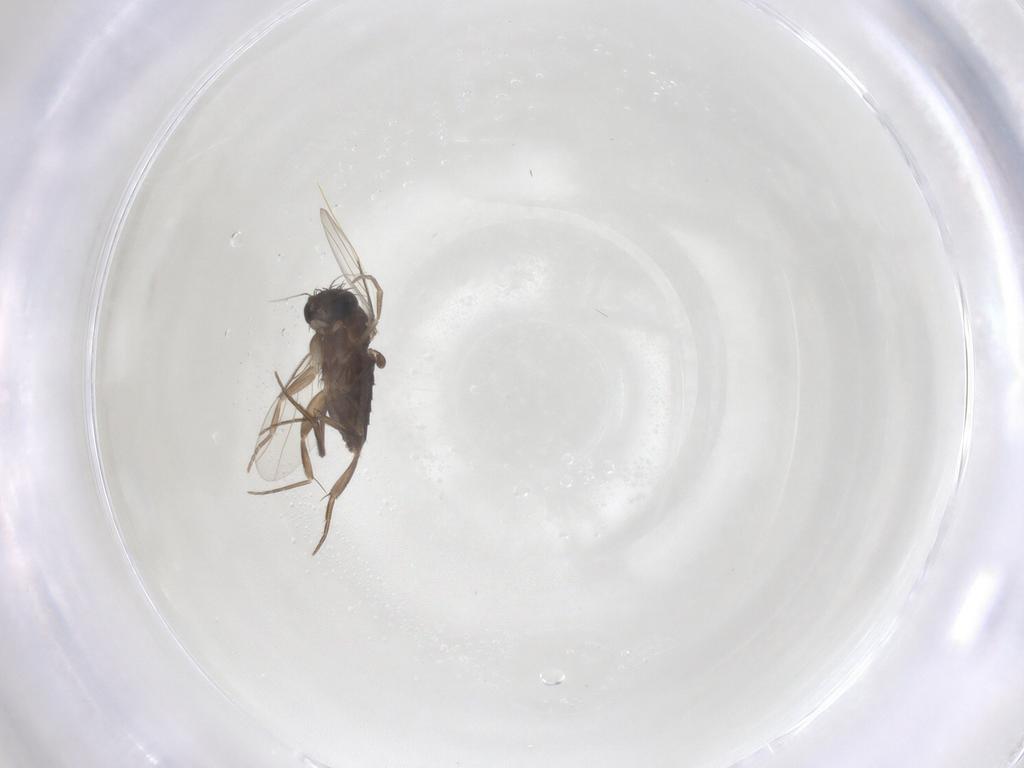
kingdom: Animalia
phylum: Arthropoda
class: Insecta
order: Diptera
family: Phoridae
